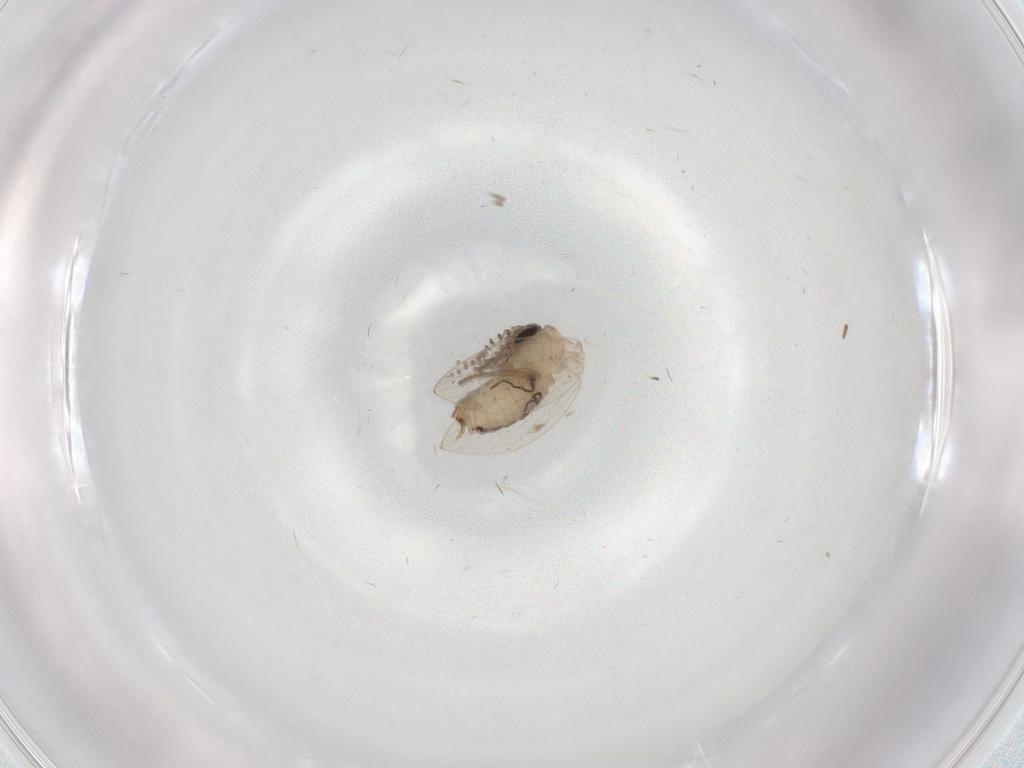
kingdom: Animalia
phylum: Arthropoda
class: Insecta
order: Diptera
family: Psychodidae
